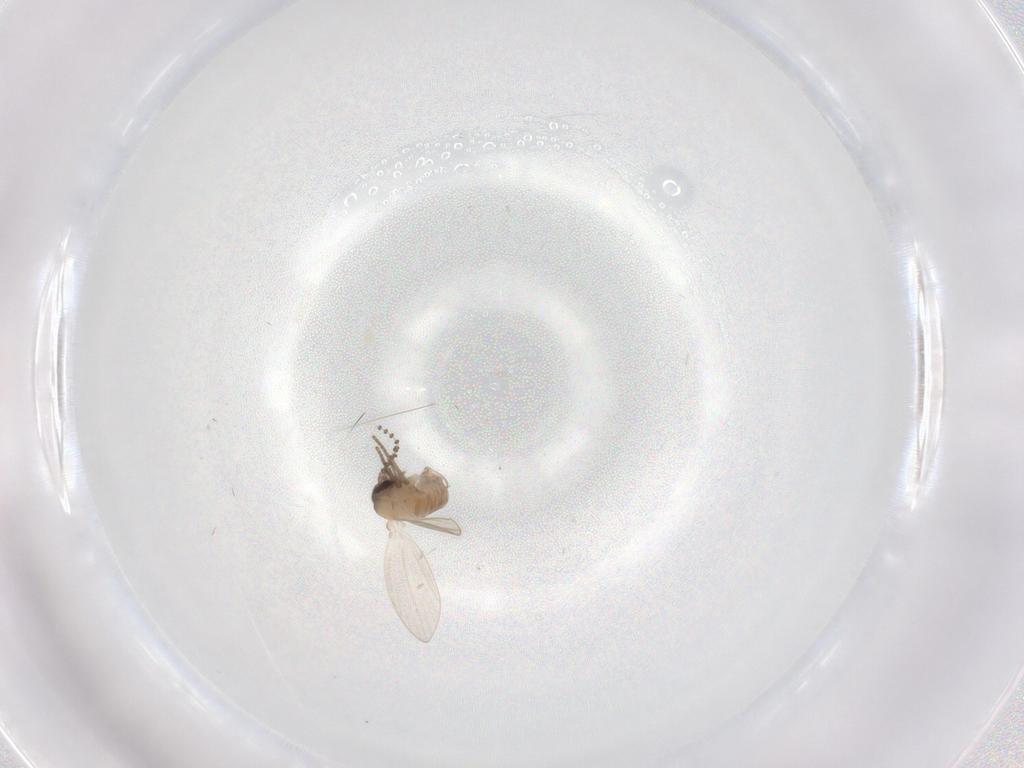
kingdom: Animalia
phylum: Arthropoda
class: Insecta
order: Diptera
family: Psychodidae
